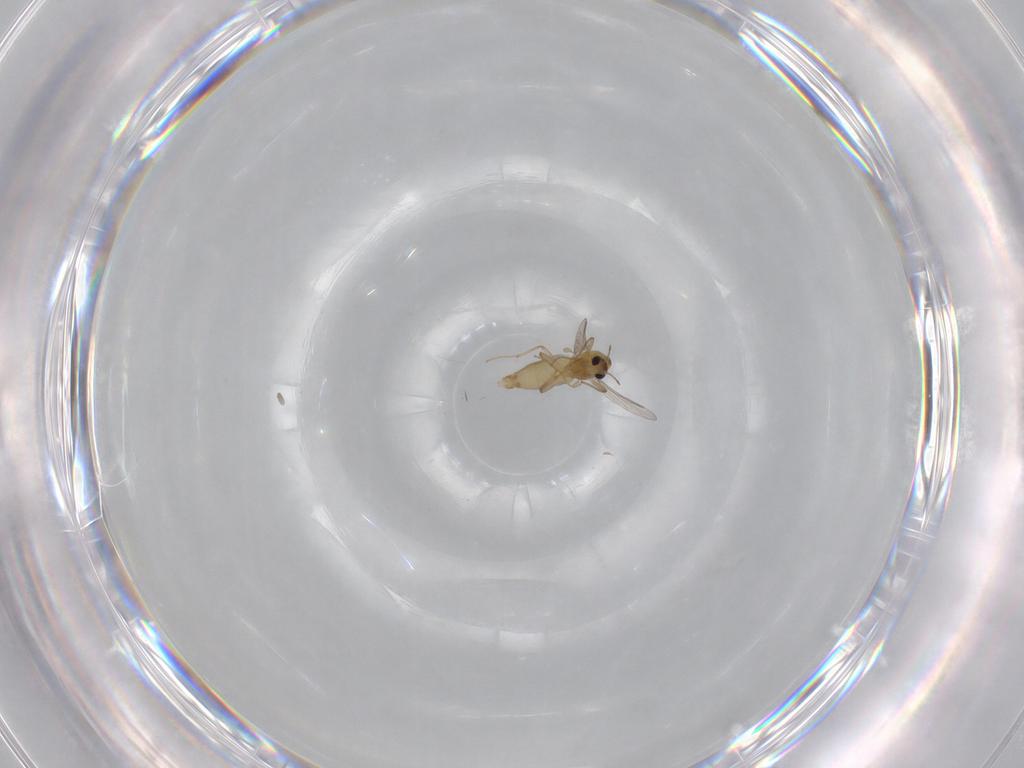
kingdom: Animalia
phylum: Arthropoda
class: Insecta
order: Diptera
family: Chironomidae
